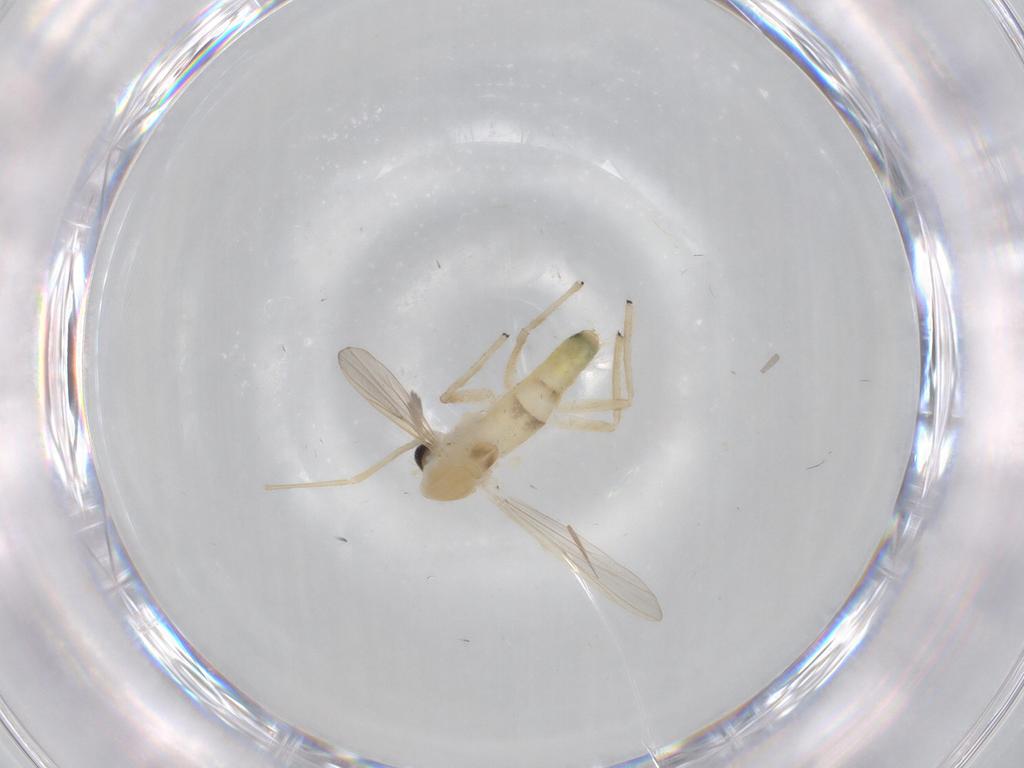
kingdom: Animalia
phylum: Arthropoda
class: Insecta
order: Diptera
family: Chironomidae
